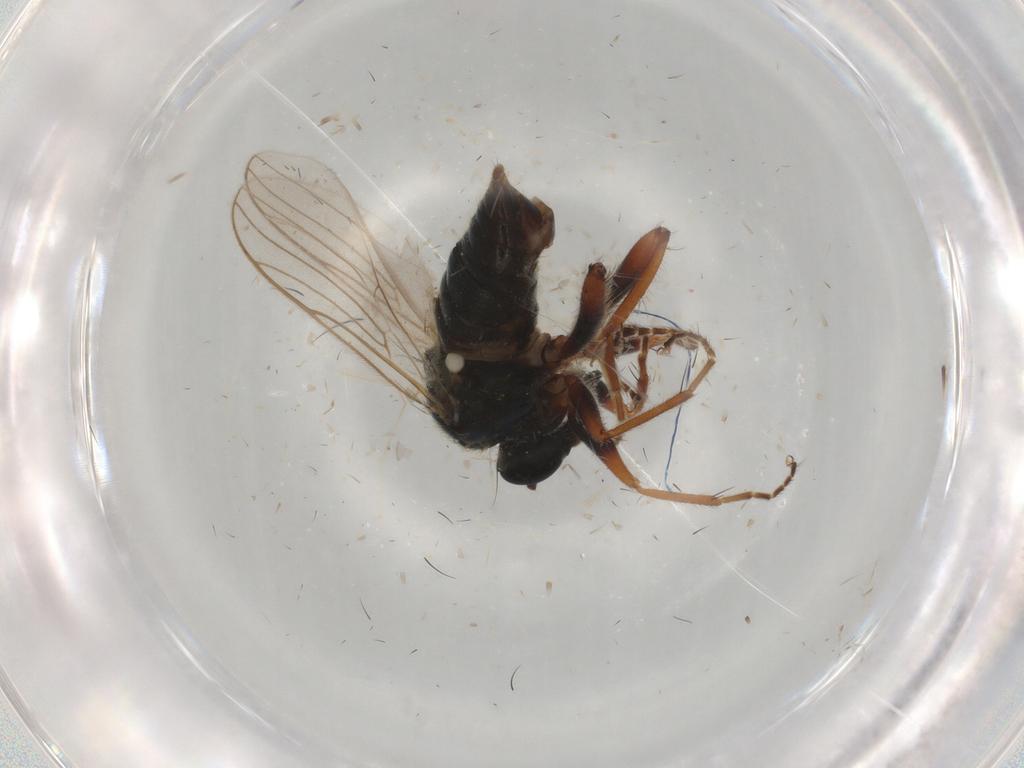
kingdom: Animalia
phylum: Arthropoda
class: Insecta
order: Diptera
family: Hybotidae
